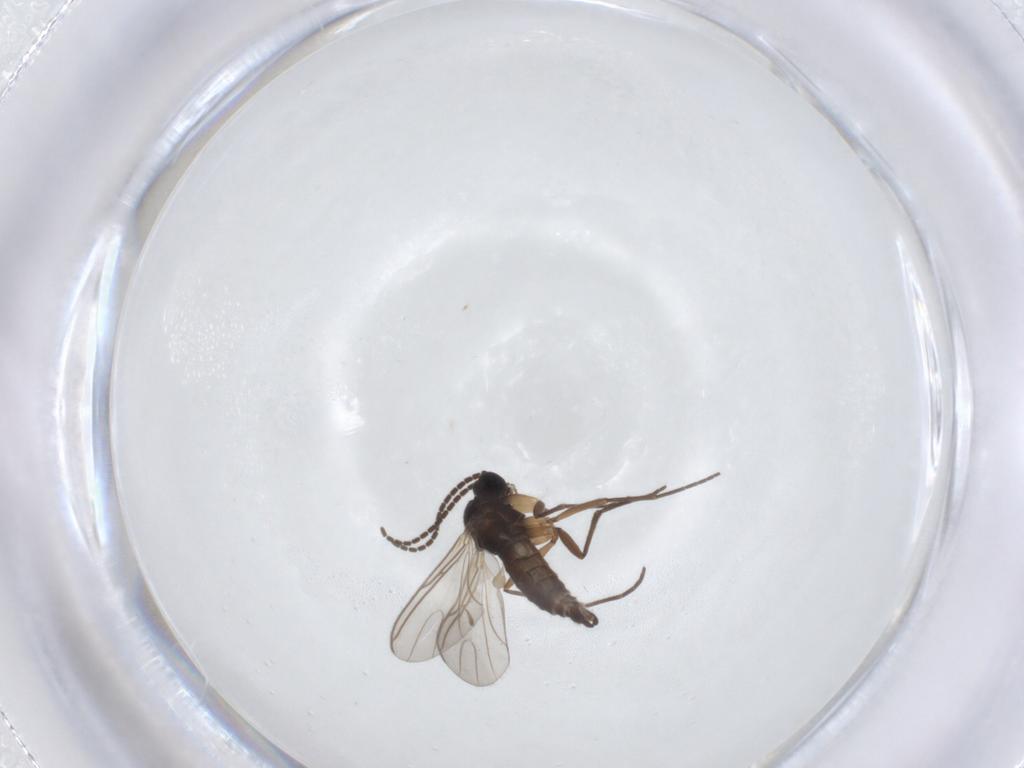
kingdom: Animalia
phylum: Arthropoda
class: Insecta
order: Diptera
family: Sciaridae
